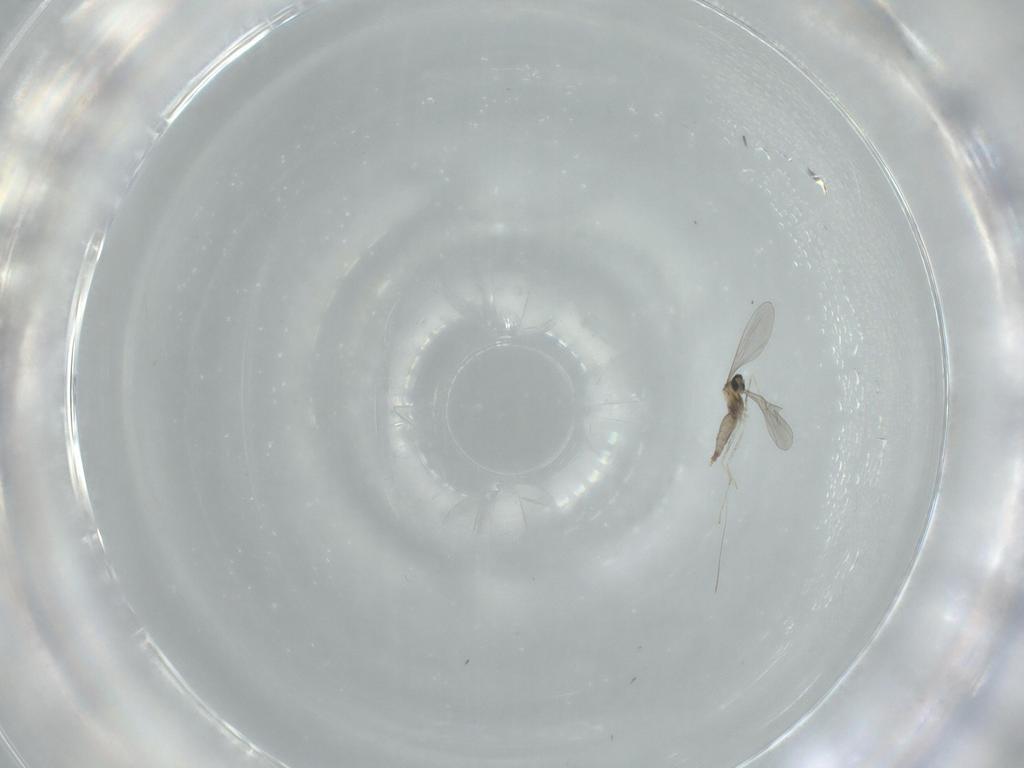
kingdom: Animalia
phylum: Arthropoda
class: Insecta
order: Diptera
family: Chironomidae
